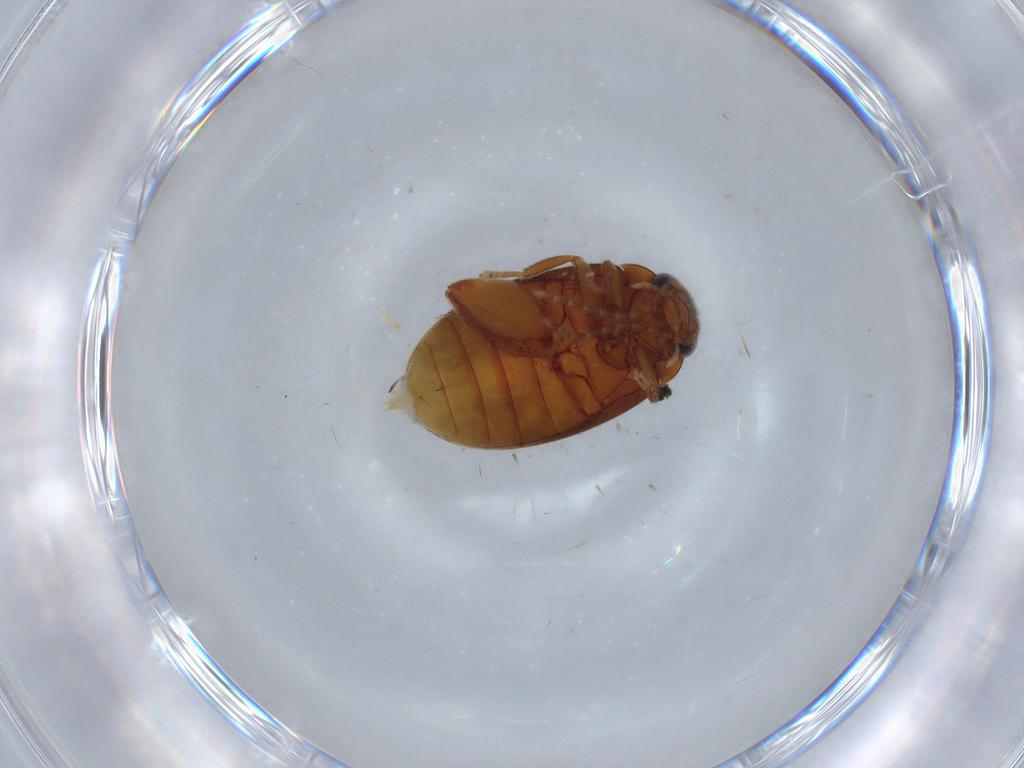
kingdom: Animalia
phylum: Arthropoda
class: Insecta
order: Coleoptera
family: Scirtidae
